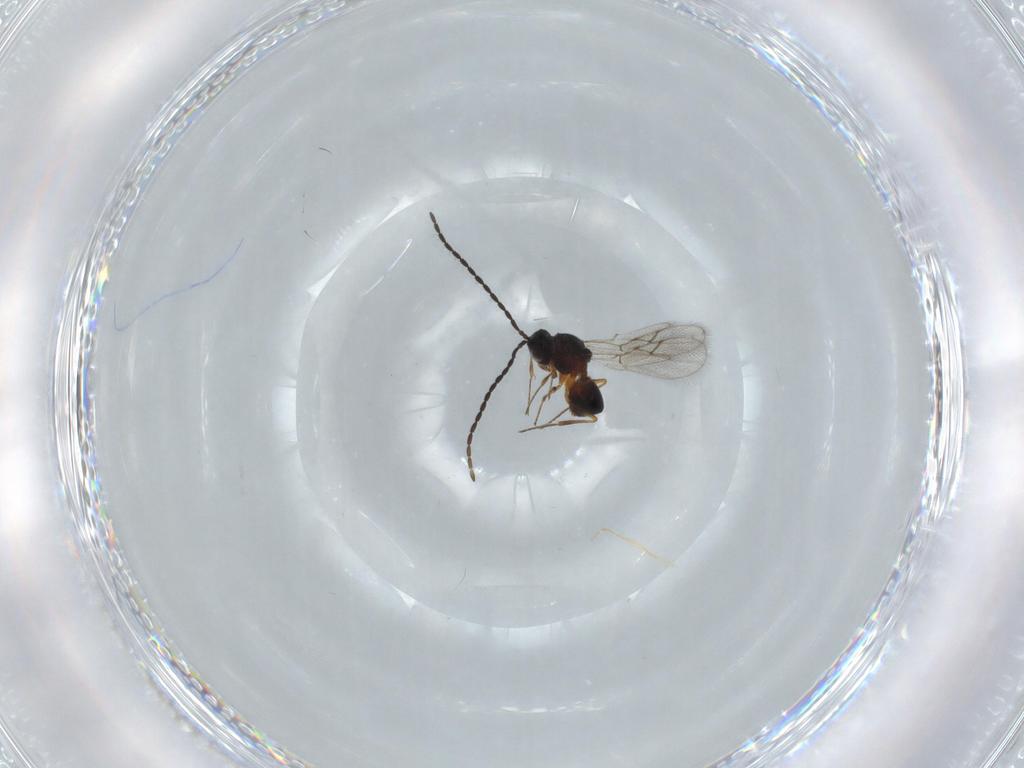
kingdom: Animalia
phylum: Arthropoda
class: Insecta
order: Hymenoptera
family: Figitidae
